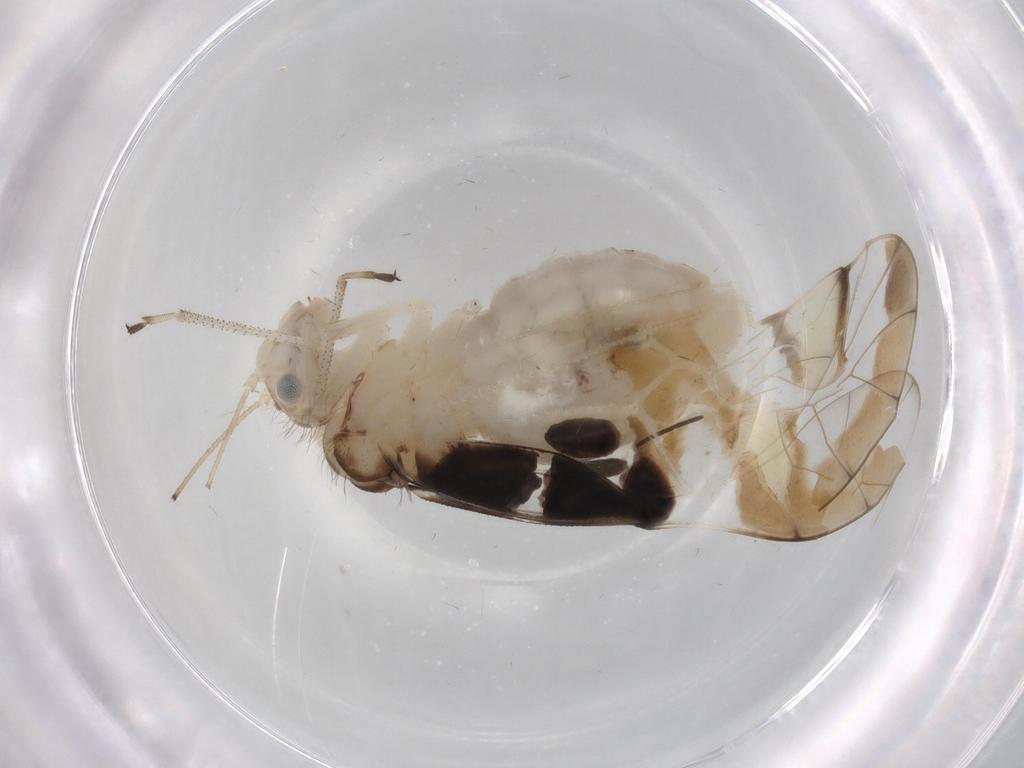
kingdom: Animalia
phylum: Arthropoda
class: Insecta
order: Psocodea
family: Amphipsocidae
